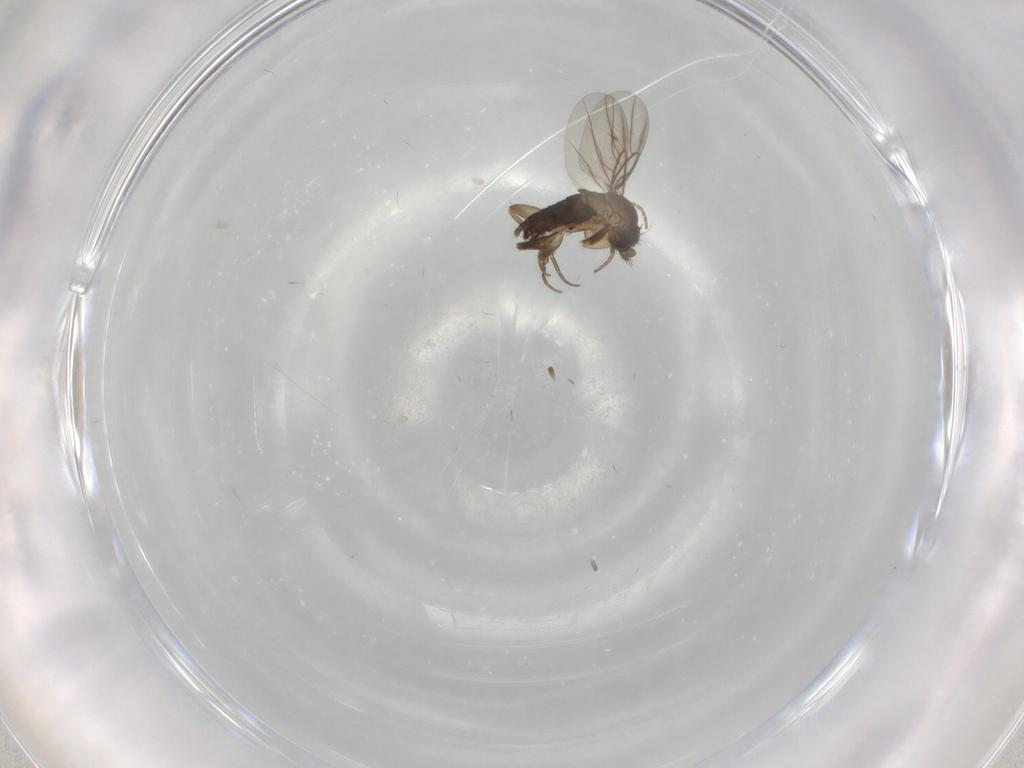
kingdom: Animalia
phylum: Arthropoda
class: Insecta
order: Diptera
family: Phoridae
